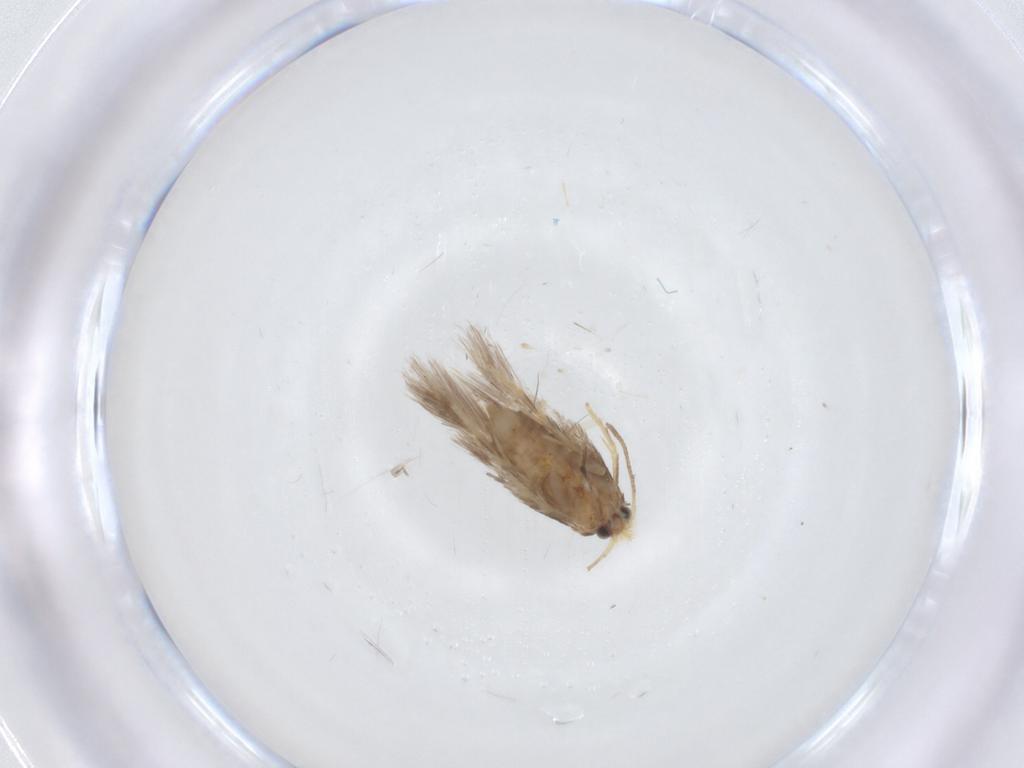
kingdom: Animalia
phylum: Arthropoda
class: Insecta
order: Lepidoptera
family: Nepticulidae
